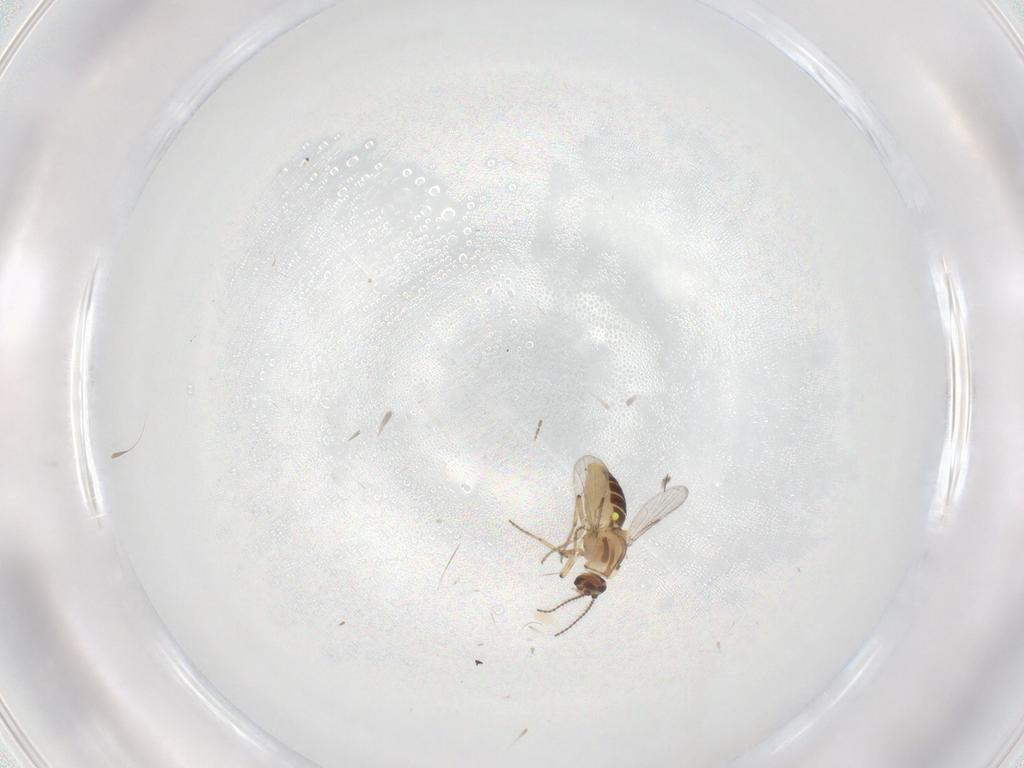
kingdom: Animalia
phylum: Arthropoda
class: Insecta
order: Diptera
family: Ceratopogonidae
